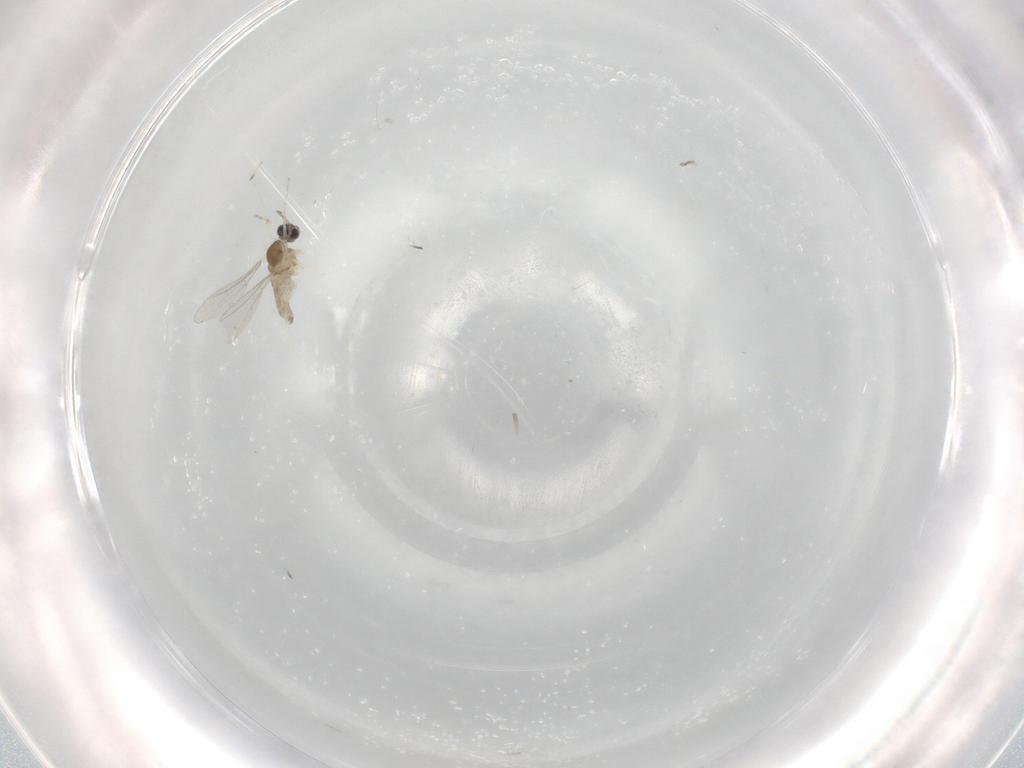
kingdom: Animalia
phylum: Arthropoda
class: Insecta
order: Diptera
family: Cecidomyiidae
